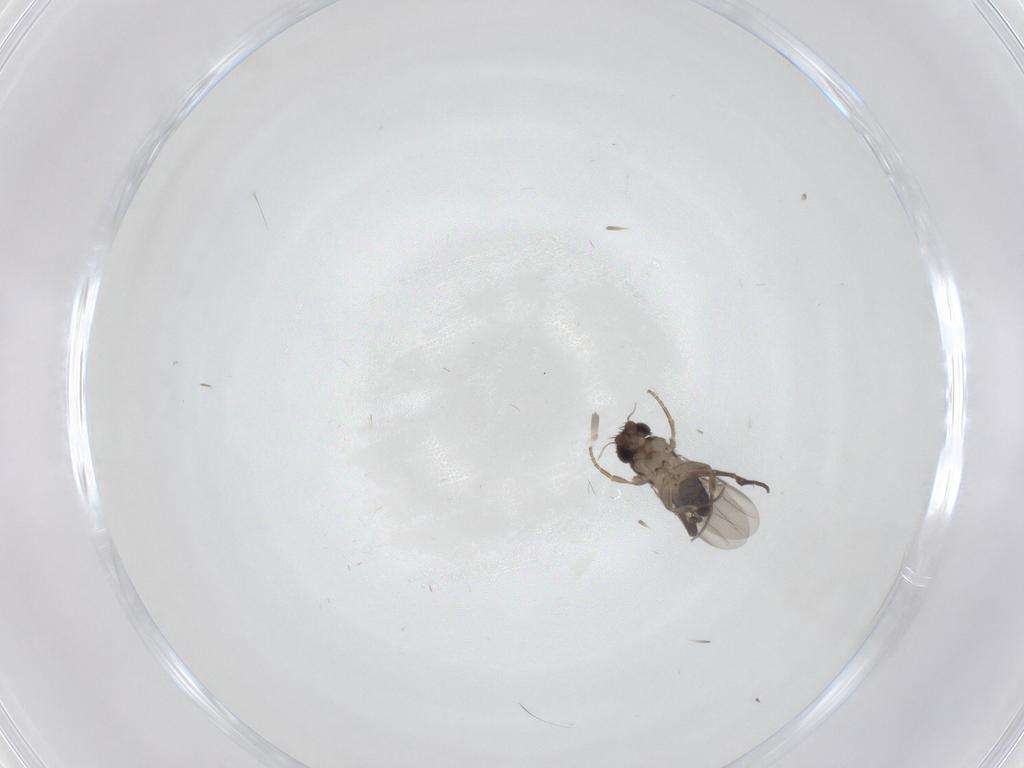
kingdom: Animalia
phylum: Arthropoda
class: Insecta
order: Diptera
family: Phoridae
